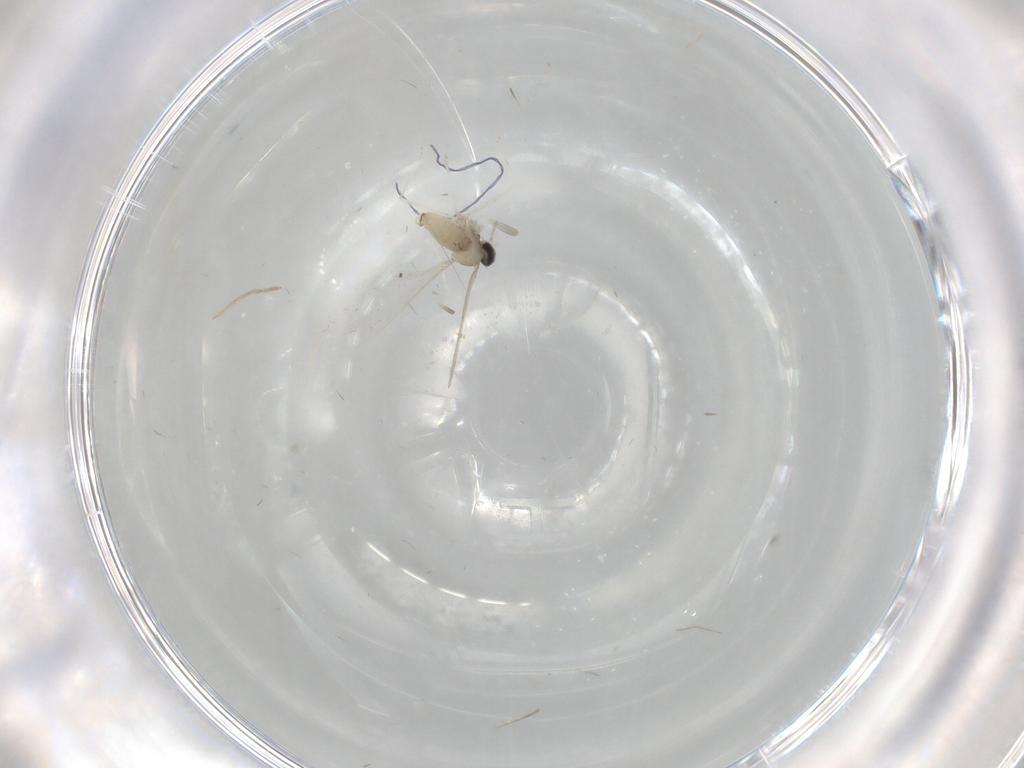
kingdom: Animalia
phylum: Arthropoda
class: Insecta
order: Diptera
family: Cecidomyiidae
